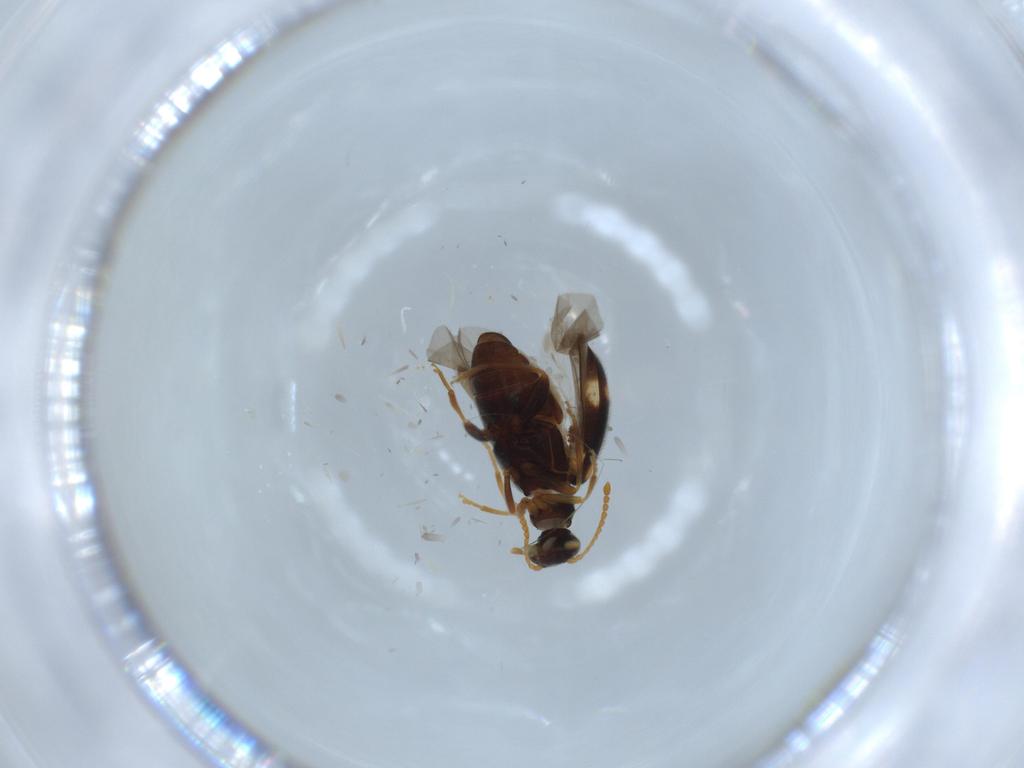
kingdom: Animalia
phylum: Arthropoda
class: Insecta
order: Coleoptera
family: Aderidae
